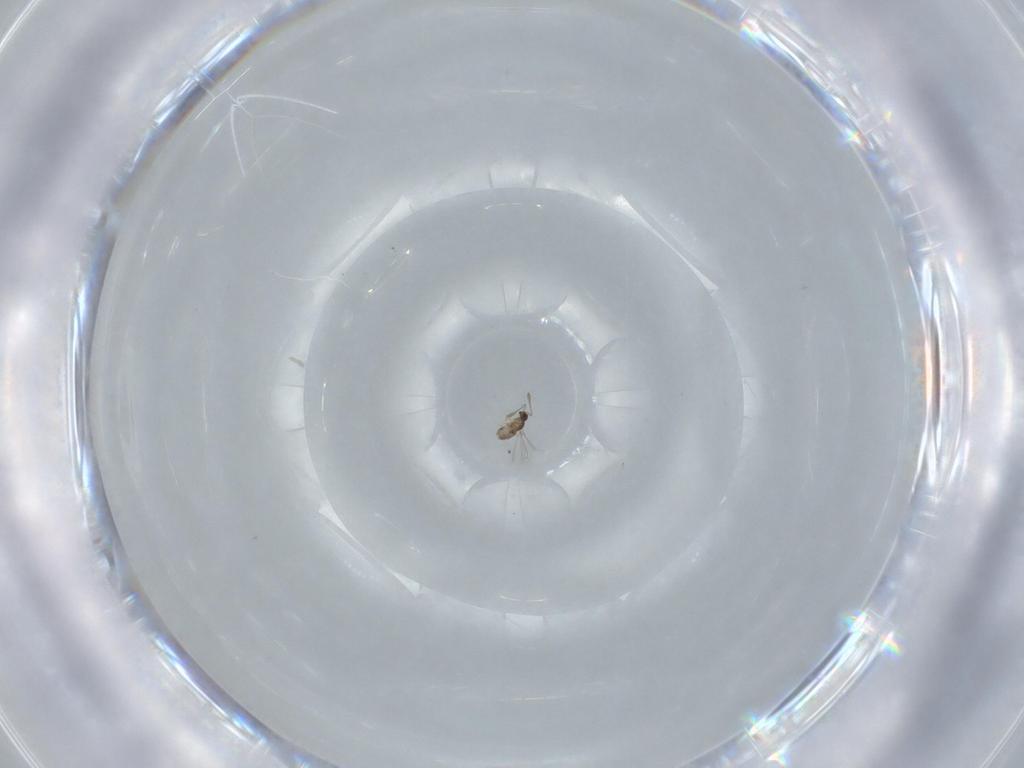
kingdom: Animalia
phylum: Arthropoda
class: Insecta
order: Hymenoptera
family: Mymaridae
